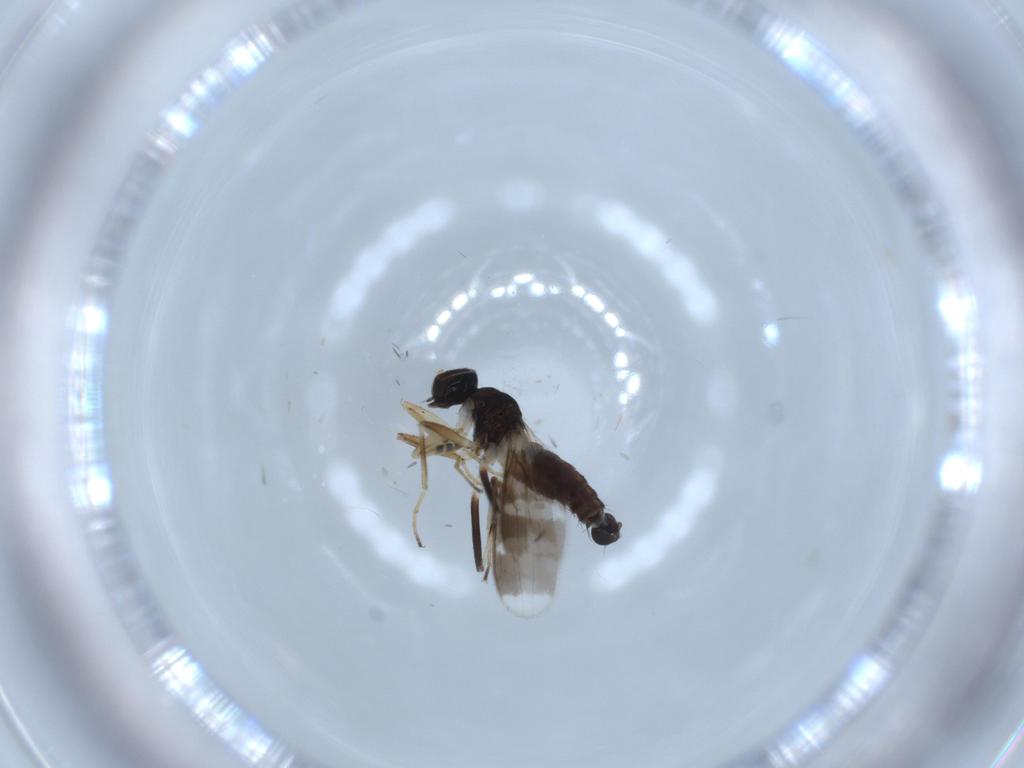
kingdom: Animalia
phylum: Arthropoda
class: Insecta
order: Diptera
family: Hybotidae
